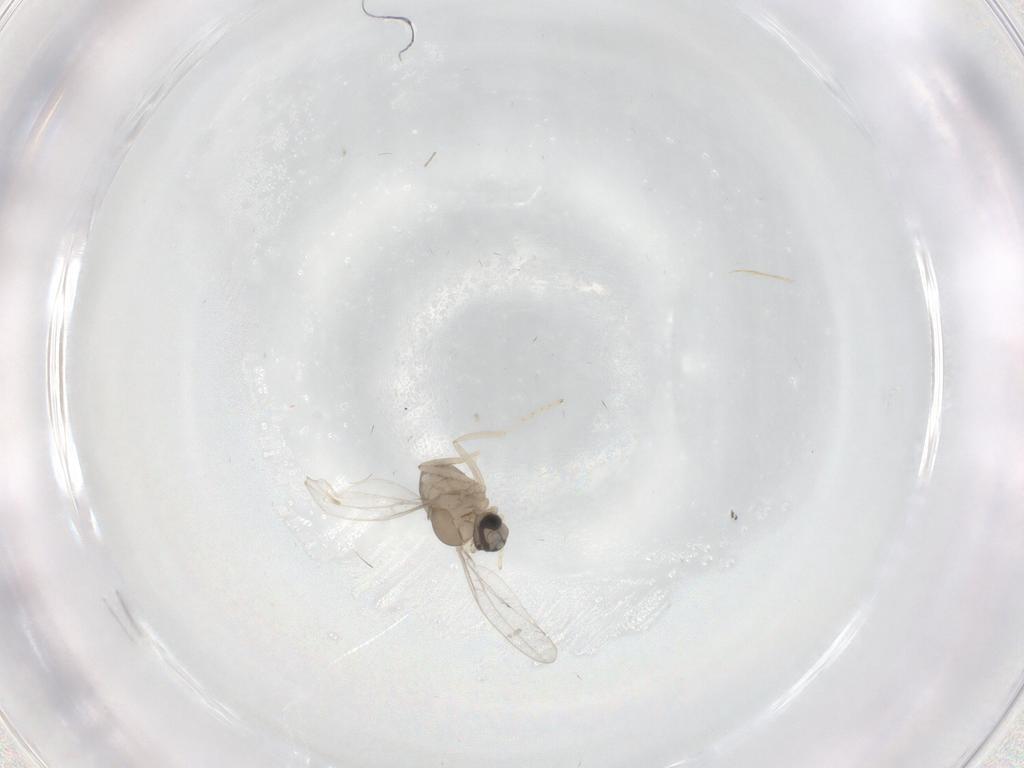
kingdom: Animalia
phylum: Arthropoda
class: Insecta
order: Diptera
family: Cecidomyiidae
